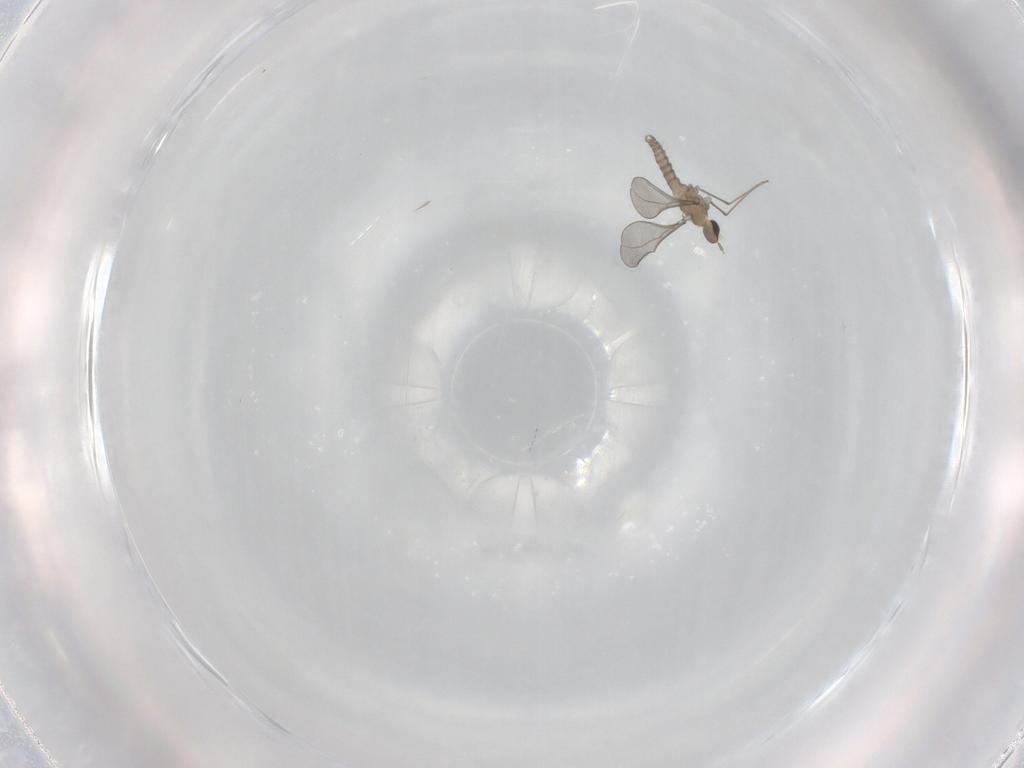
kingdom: Animalia
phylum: Arthropoda
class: Insecta
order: Diptera
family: Cecidomyiidae
